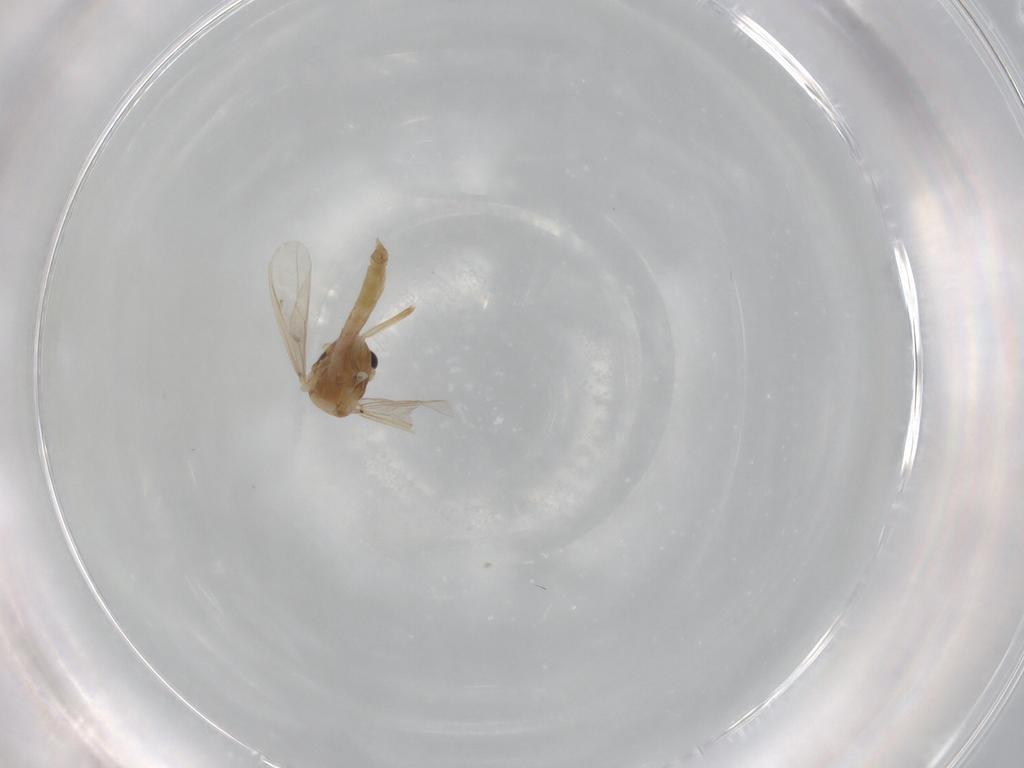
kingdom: Animalia
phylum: Arthropoda
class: Insecta
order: Diptera
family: Chironomidae
